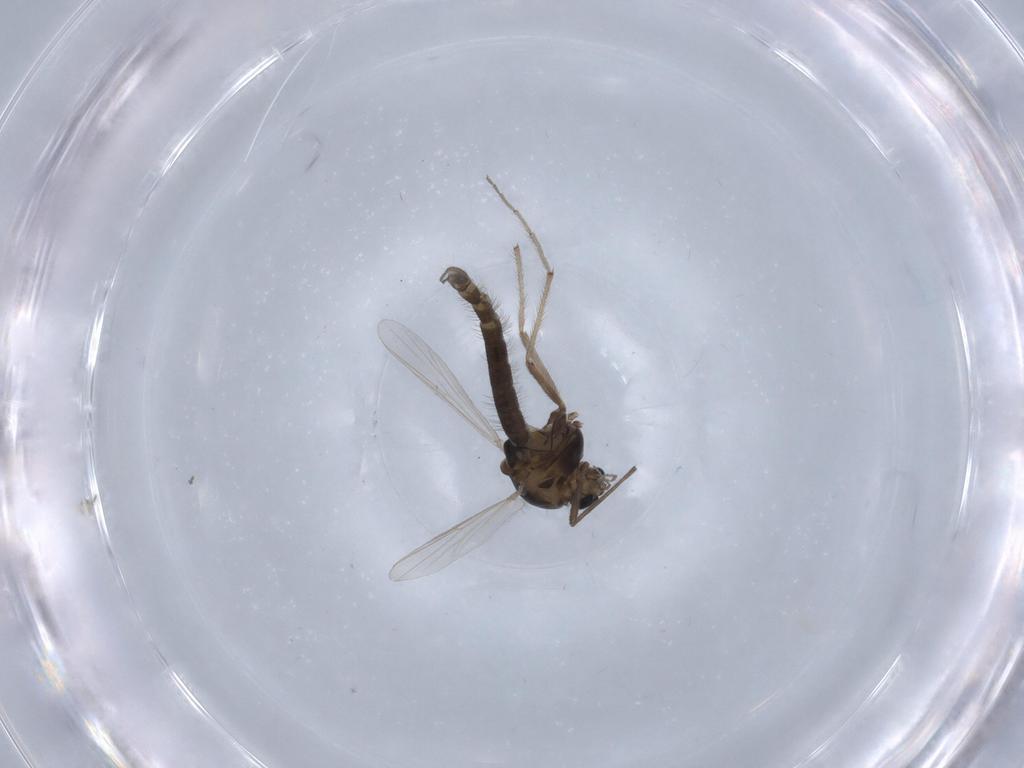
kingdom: Animalia
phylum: Arthropoda
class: Insecta
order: Diptera
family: Chironomidae
